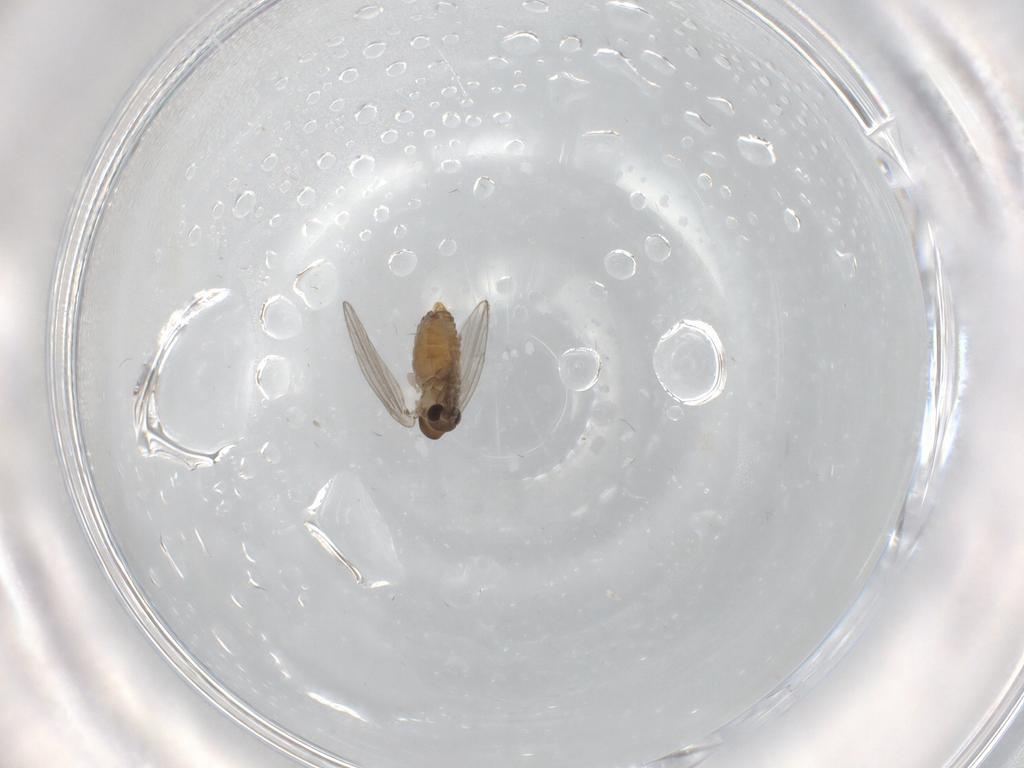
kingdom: Animalia
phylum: Arthropoda
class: Insecta
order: Diptera
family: Phoridae
